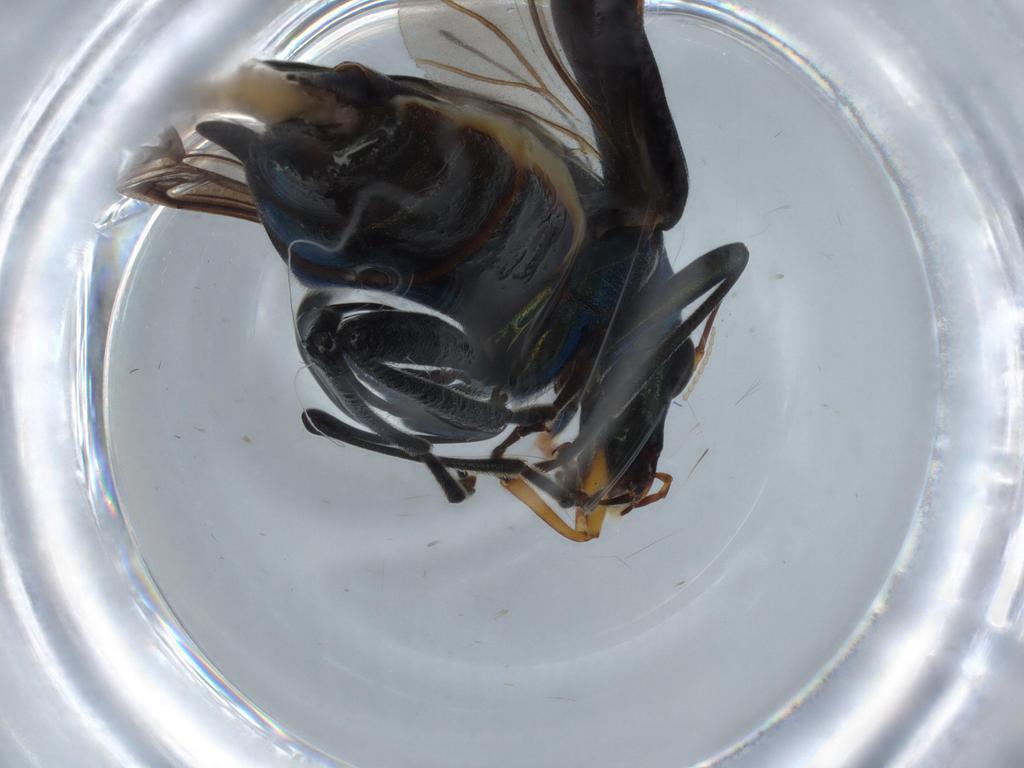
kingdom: Animalia
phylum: Arthropoda
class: Insecta
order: Coleoptera
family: Oedemeridae
